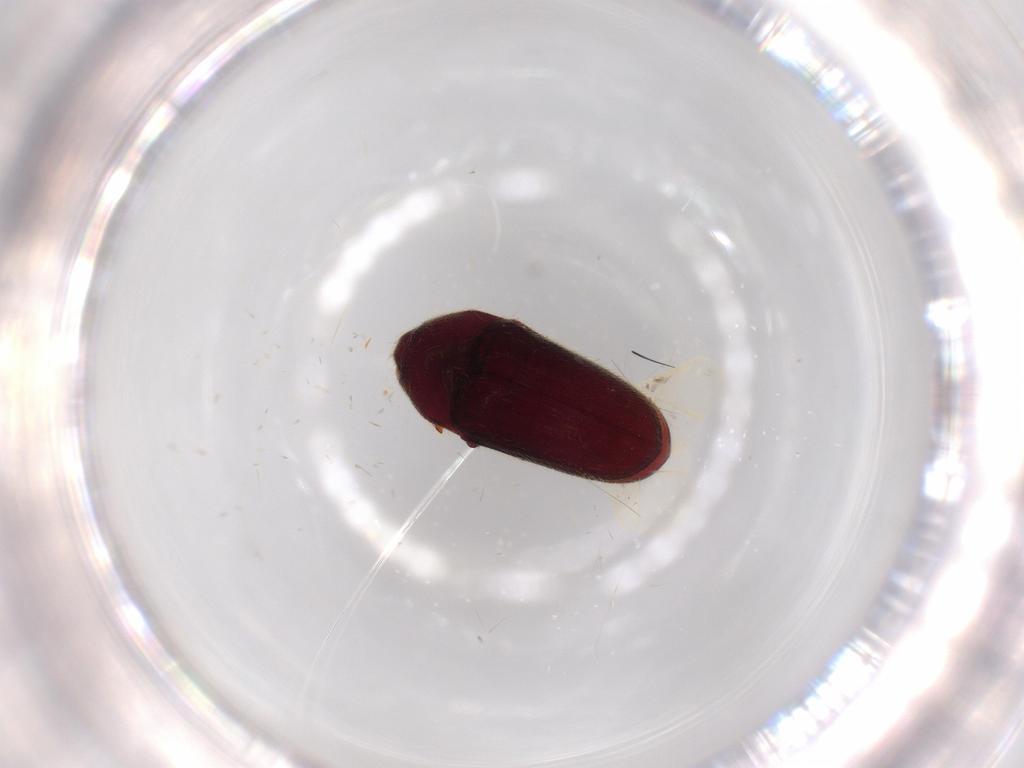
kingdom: Animalia
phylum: Arthropoda
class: Insecta
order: Coleoptera
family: Throscidae
